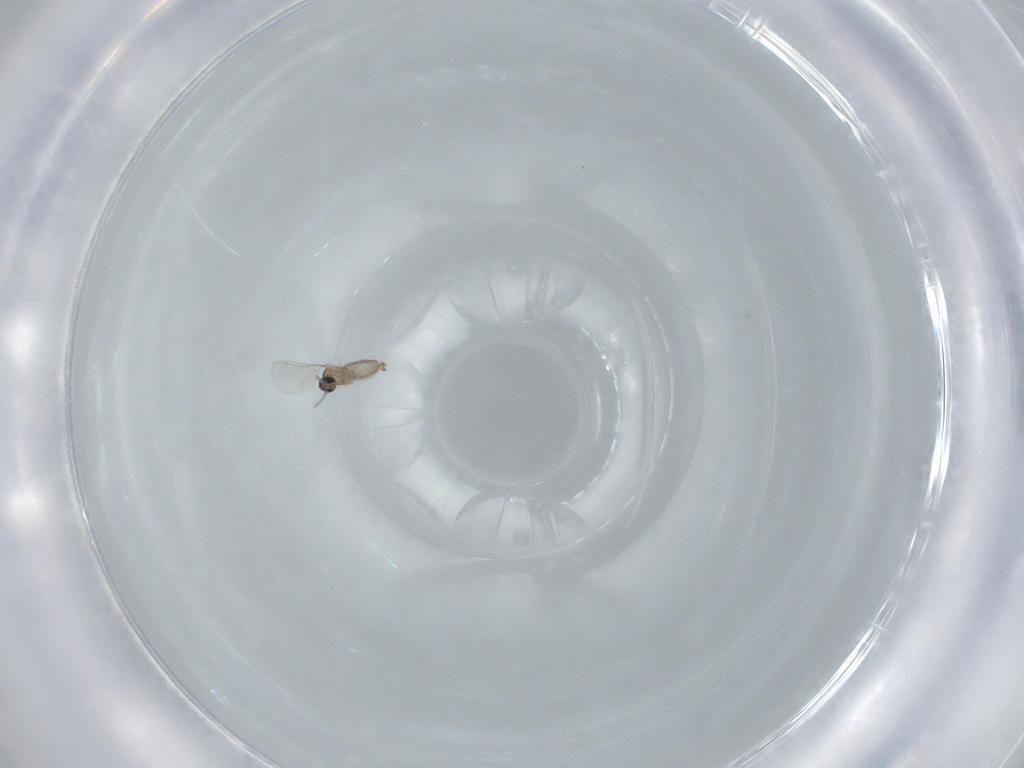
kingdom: Animalia
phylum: Arthropoda
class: Insecta
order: Diptera
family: Cecidomyiidae
